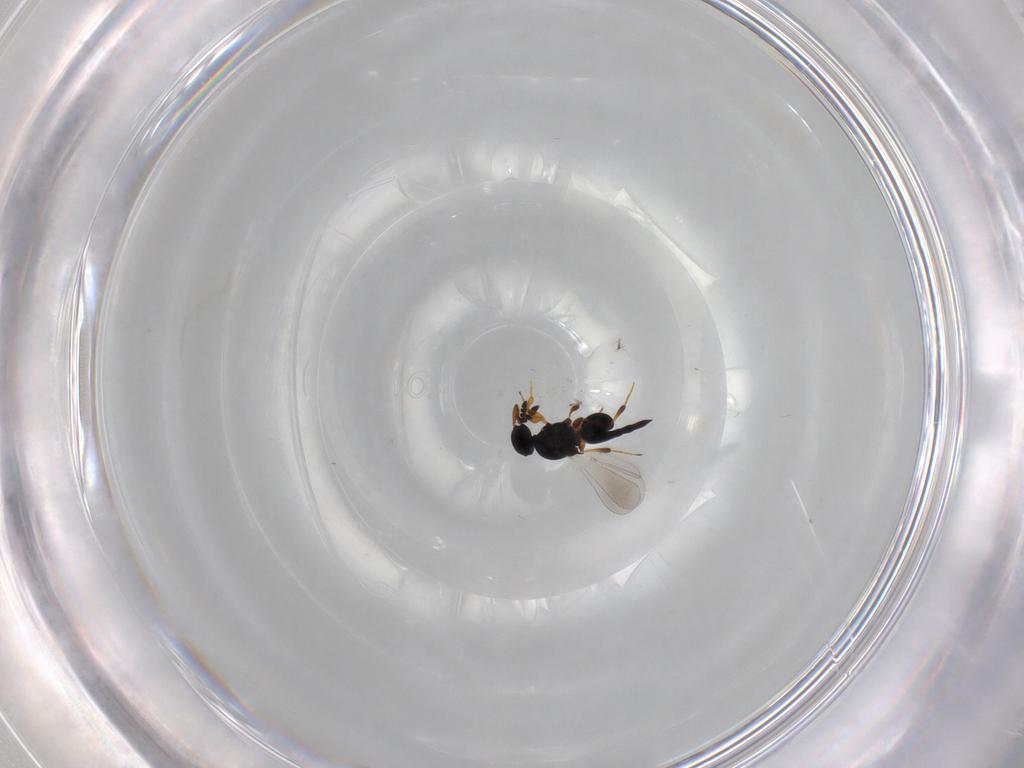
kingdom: Animalia
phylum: Arthropoda
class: Insecta
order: Hymenoptera
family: Platygastridae
